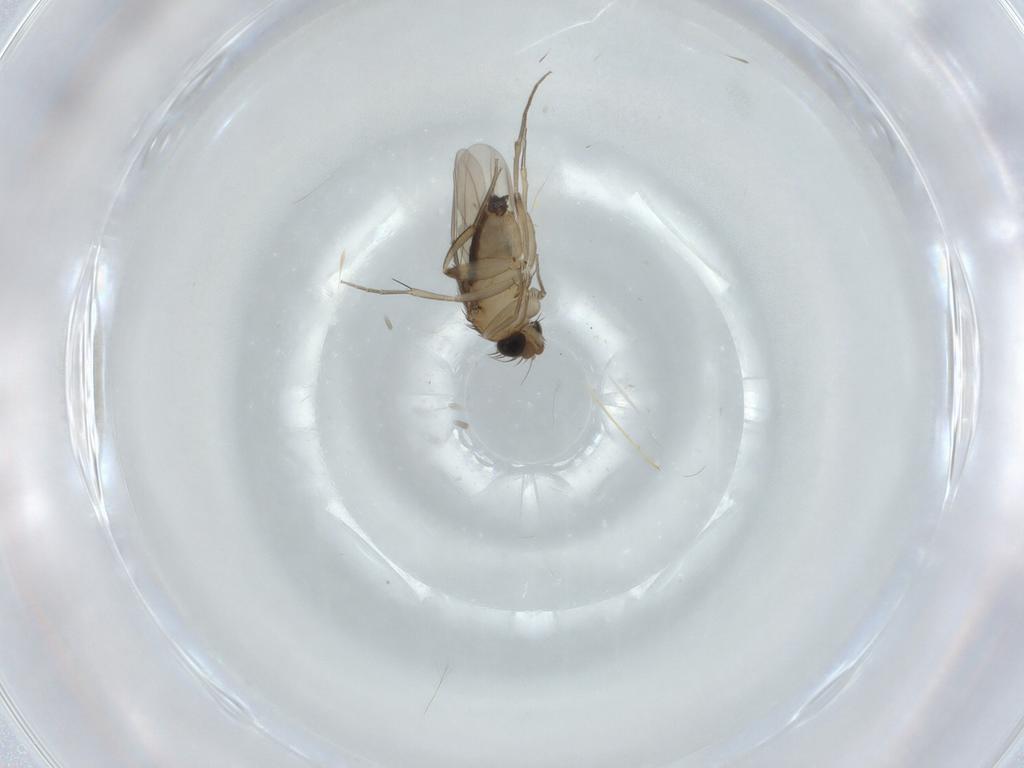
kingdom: Animalia
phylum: Arthropoda
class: Insecta
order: Diptera
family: Phoridae
